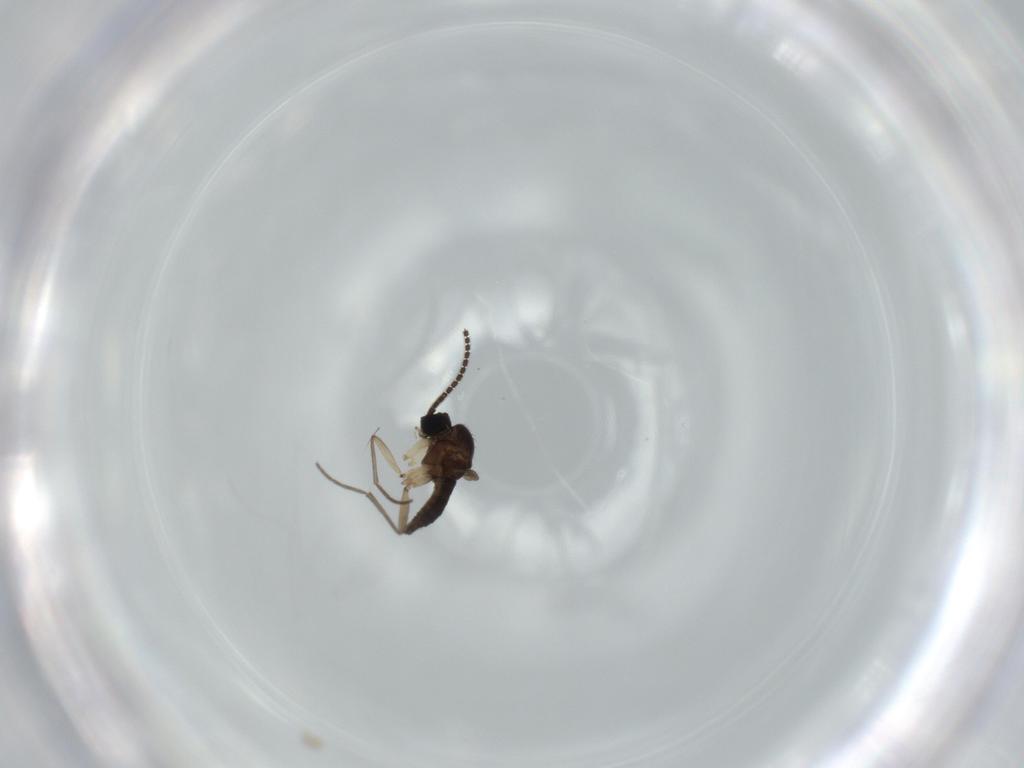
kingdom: Animalia
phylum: Arthropoda
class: Insecta
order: Diptera
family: Sciaridae
